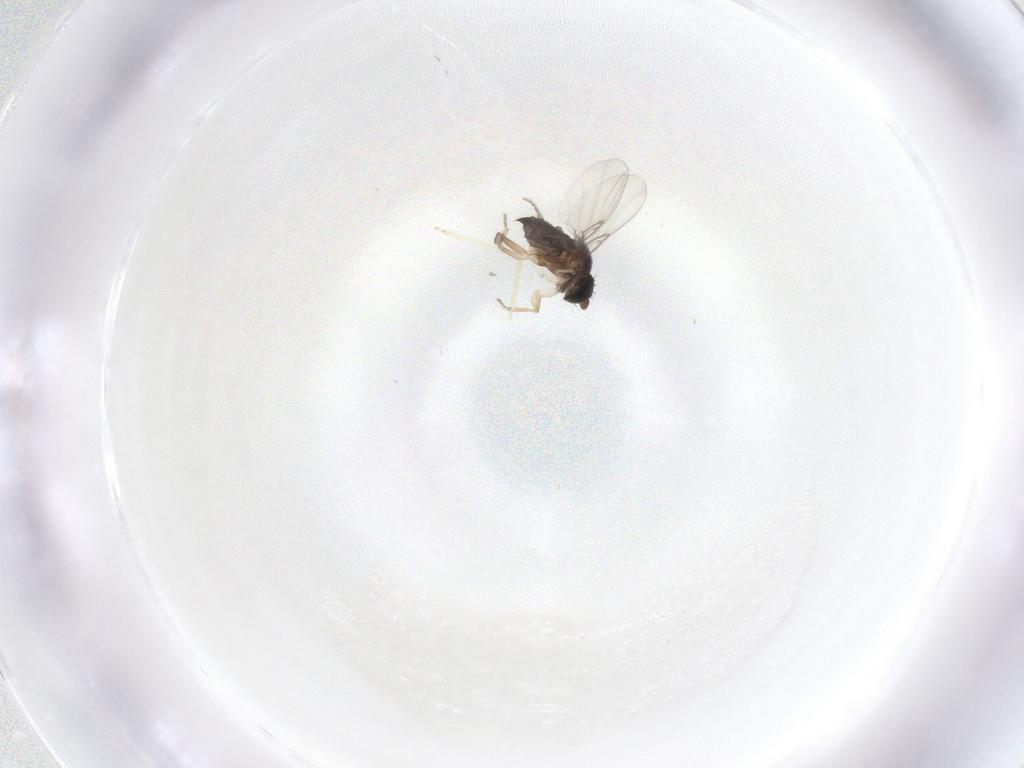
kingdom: Animalia
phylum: Arthropoda
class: Insecta
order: Diptera
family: Phoridae
